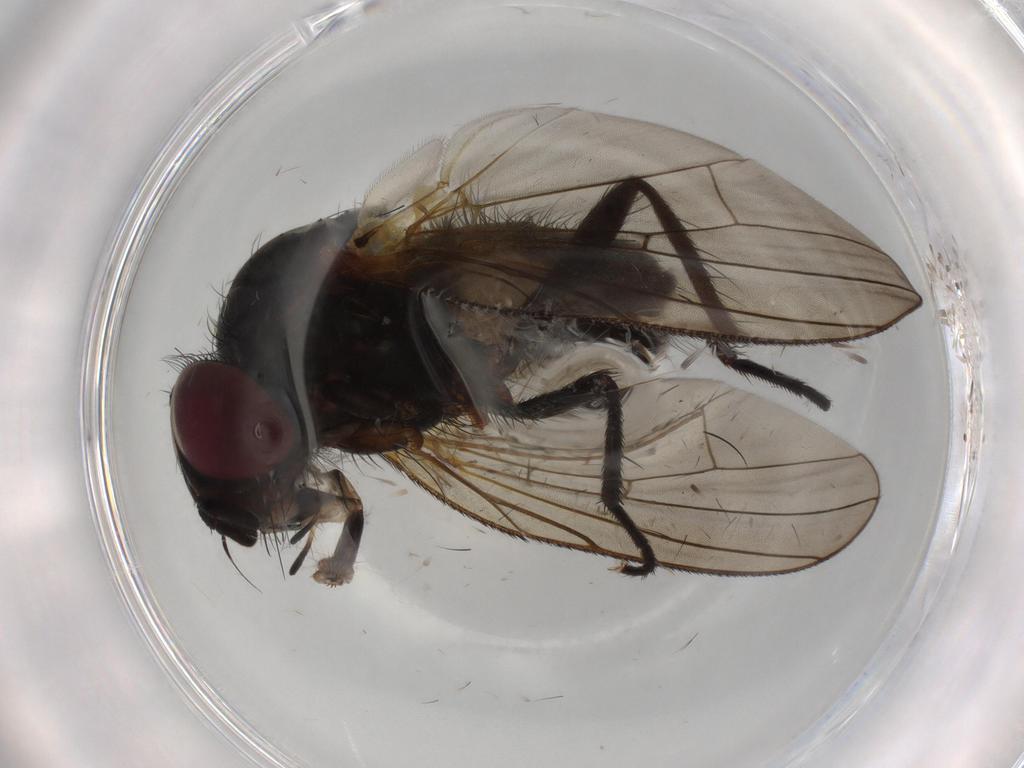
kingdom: Animalia
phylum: Arthropoda
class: Insecta
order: Diptera
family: Anthomyiidae
